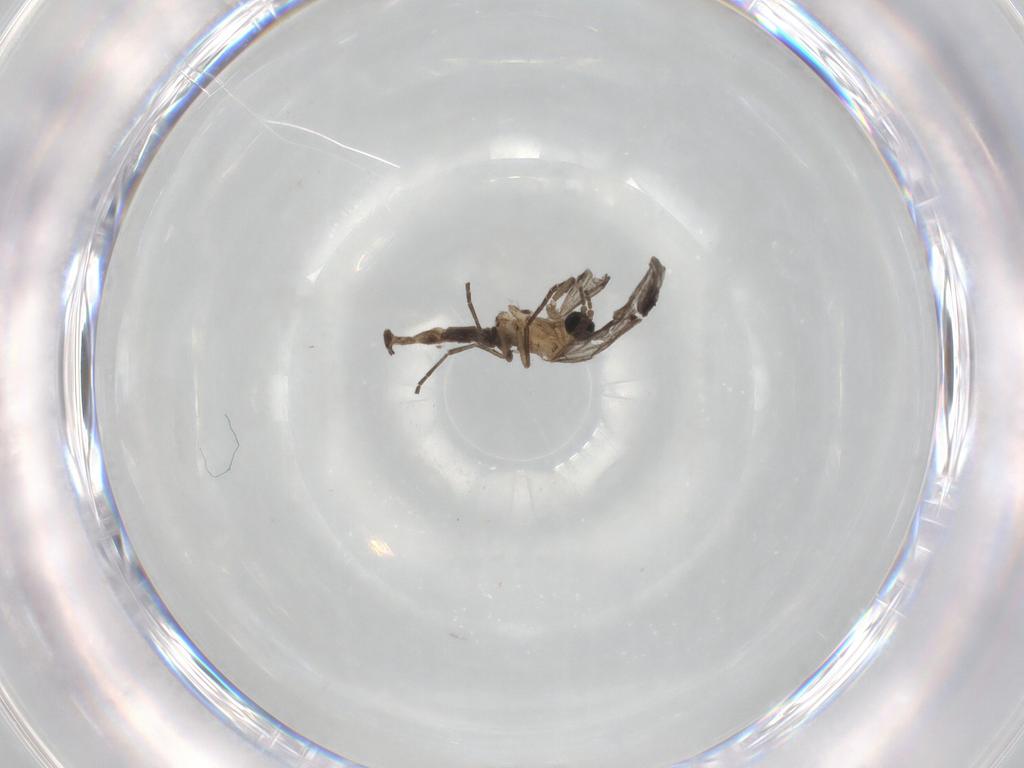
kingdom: Animalia
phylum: Arthropoda
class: Insecta
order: Diptera
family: Sciaridae
